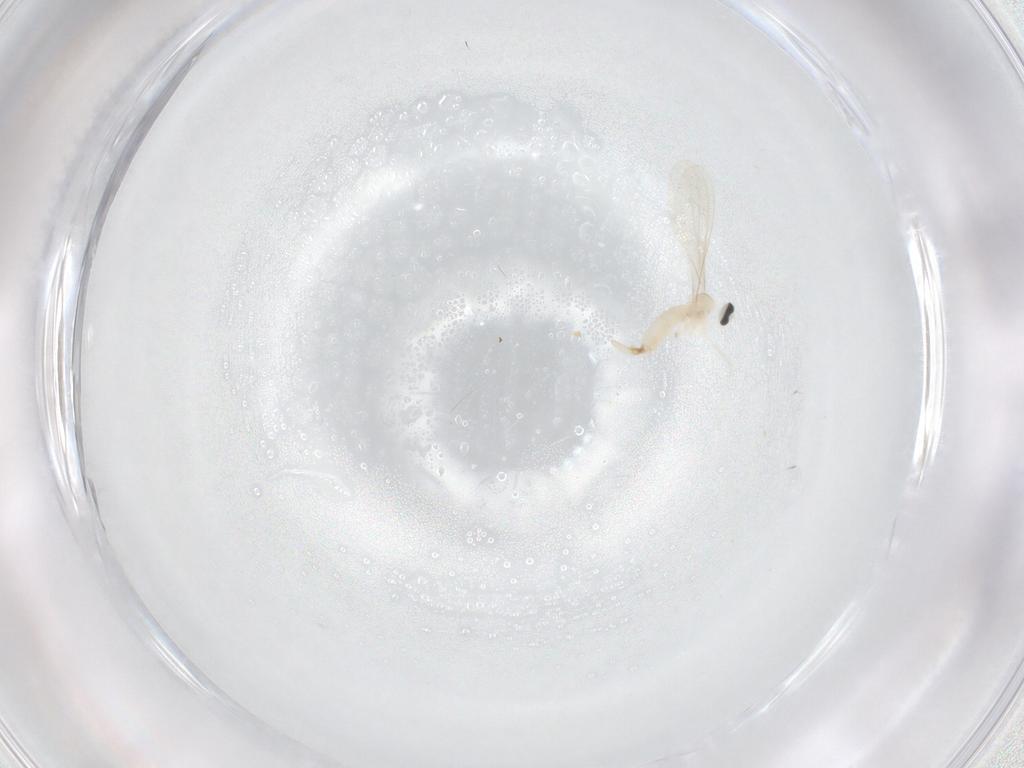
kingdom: Animalia
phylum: Arthropoda
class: Insecta
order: Diptera
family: Cecidomyiidae
